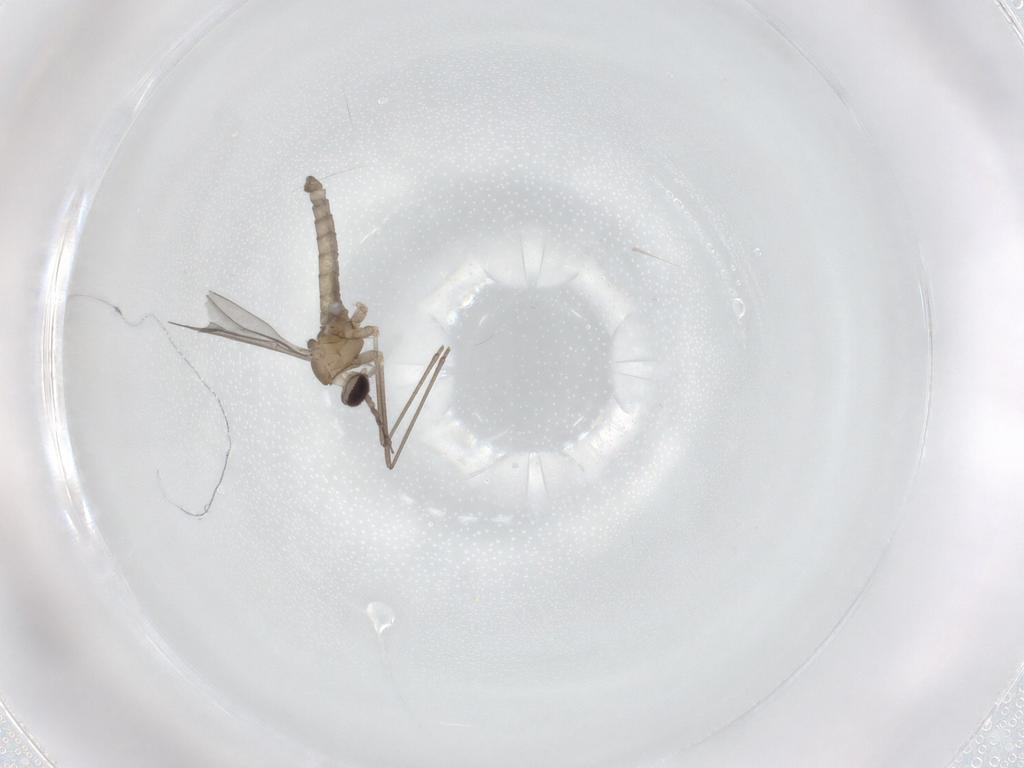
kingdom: Animalia
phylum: Arthropoda
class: Insecta
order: Diptera
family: Cecidomyiidae
